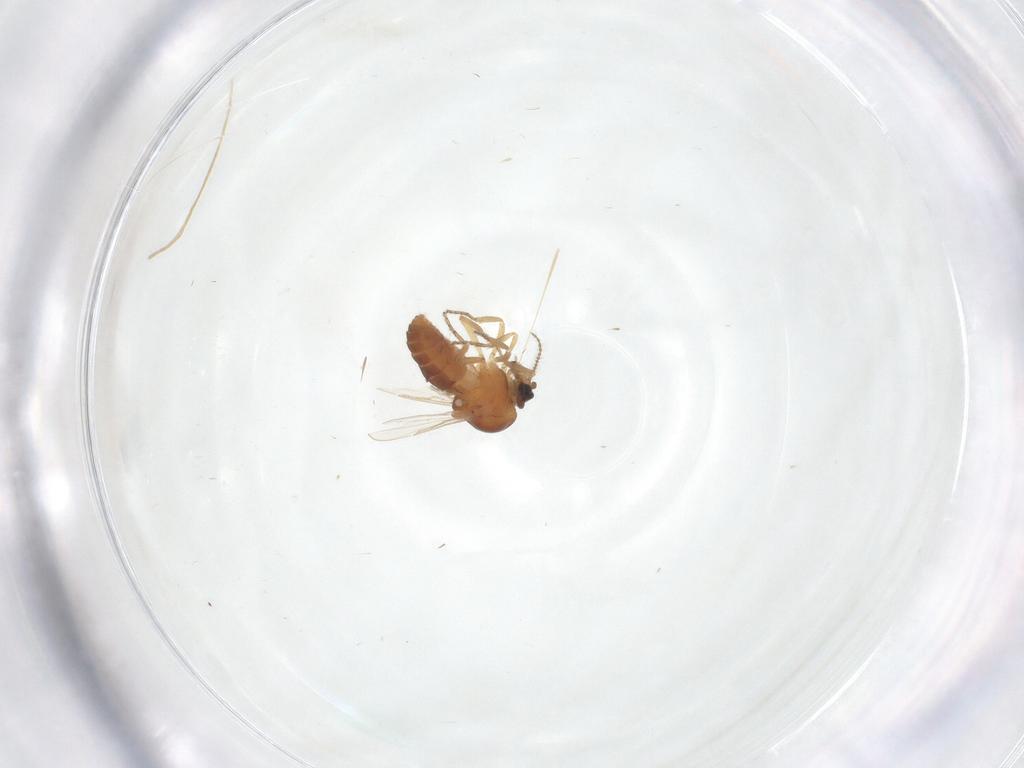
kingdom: Animalia
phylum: Arthropoda
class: Insecta
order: Diptera
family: Ceratopogonidae
